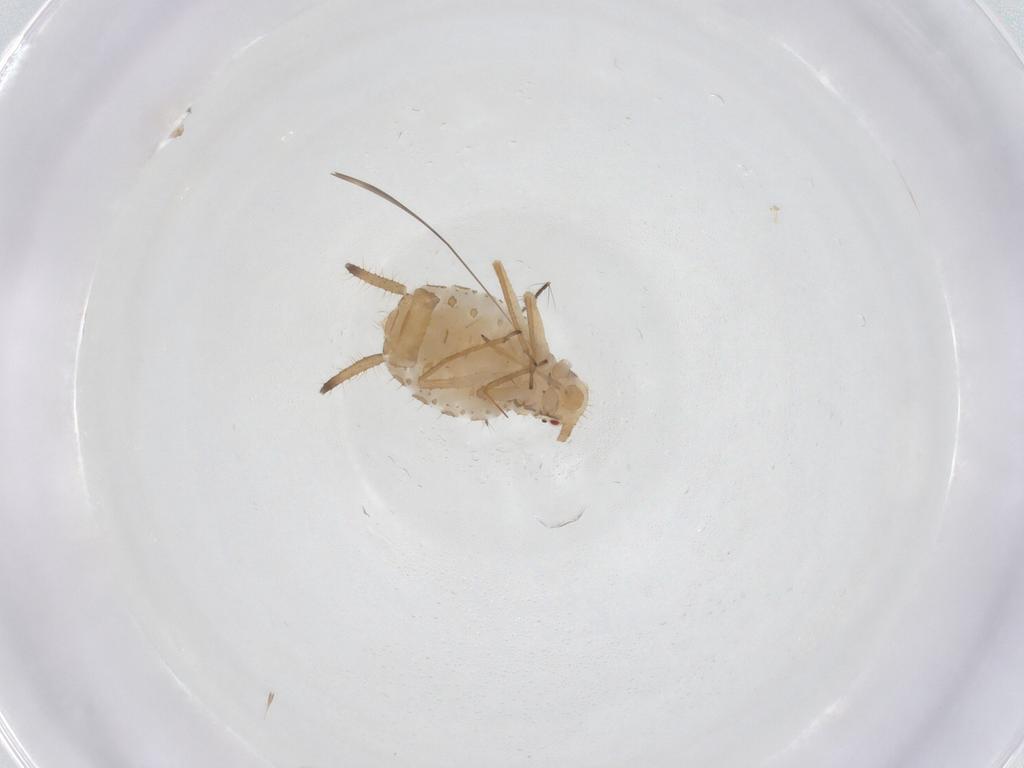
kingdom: Animalia
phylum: Arthropoda
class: Insecta
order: Hemiptera
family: Aphididae
